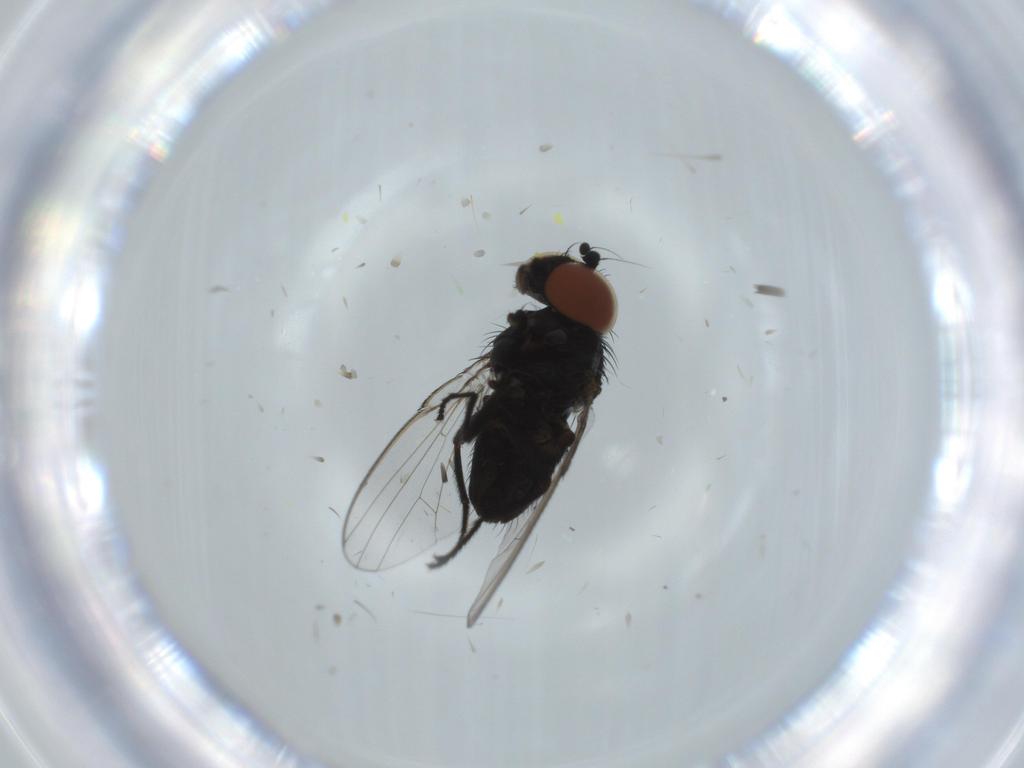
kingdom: Animalia
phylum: Arthropoda
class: Insecta
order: Diptera
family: Milichiidae
